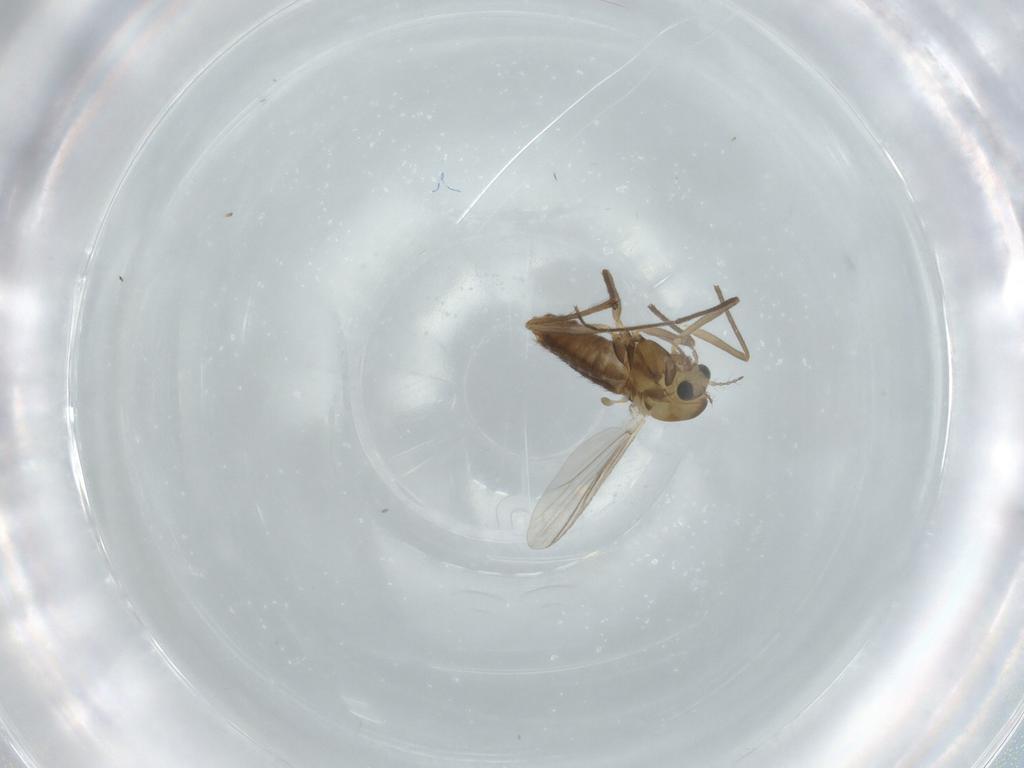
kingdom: Animalia
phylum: Arthropoda
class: Insecta
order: Diptera
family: Chironomidae
